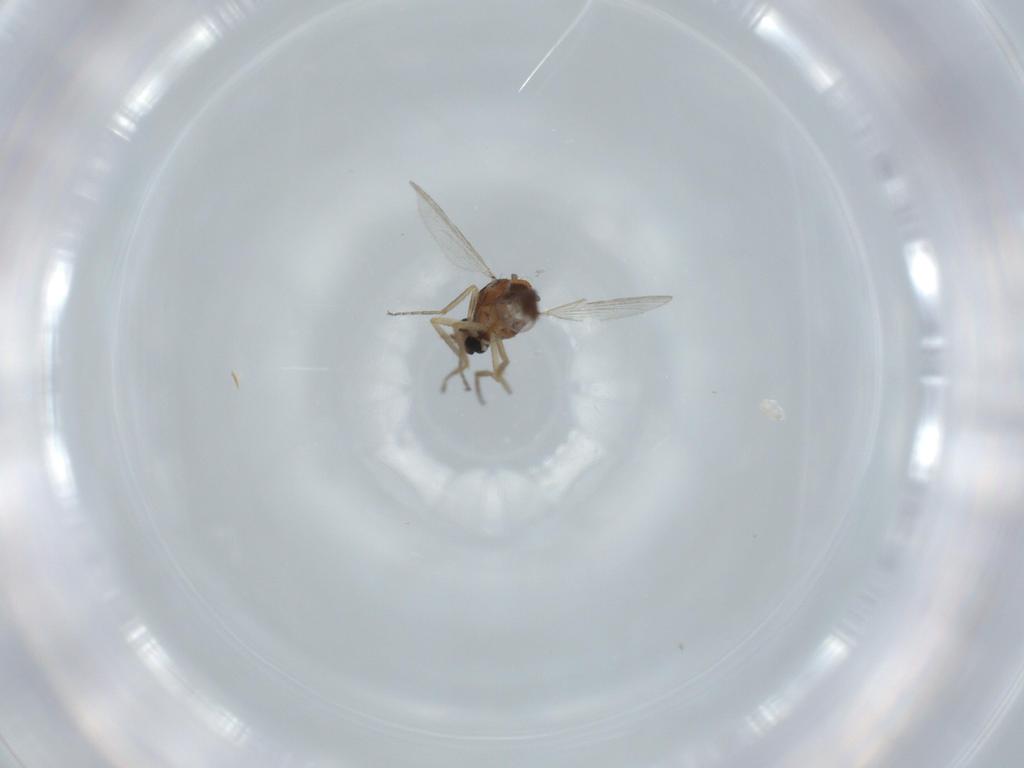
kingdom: Animalia
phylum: Arthropoda
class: Insecta
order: Diptera
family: Ceratopogonidae
